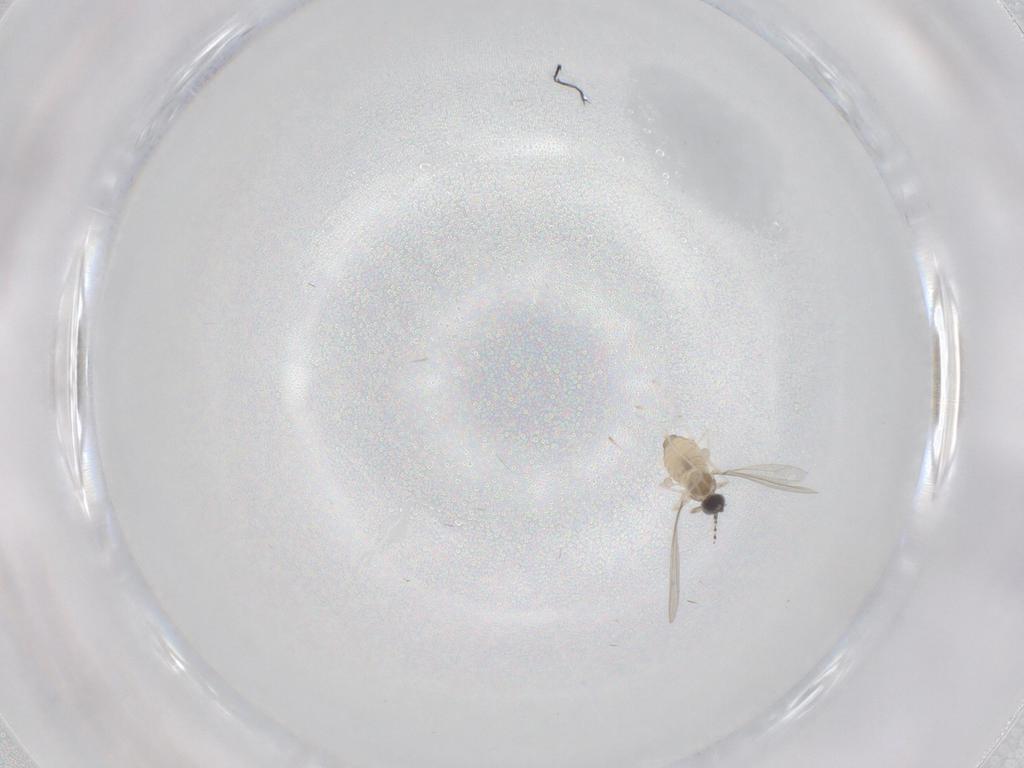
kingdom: Animalia
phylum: Arthropoda
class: Insecta
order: Diptera
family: Cecidomyiidae
